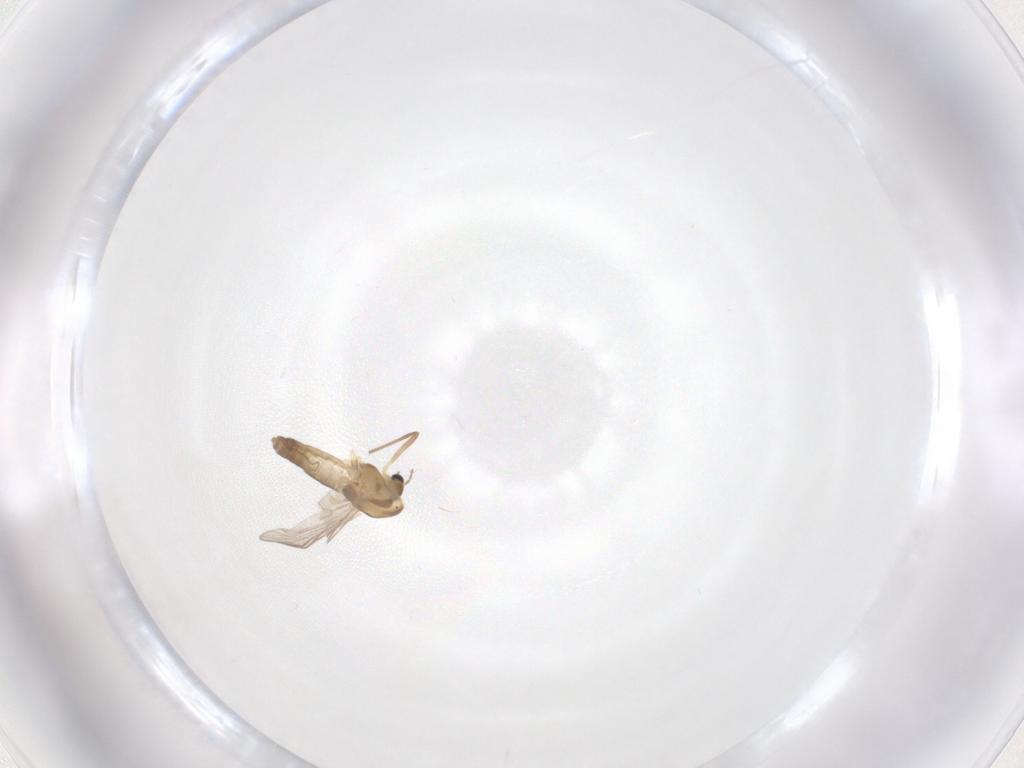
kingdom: Animalia
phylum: Arthropoda
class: Insecta
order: Diptera
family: Chironomidae
